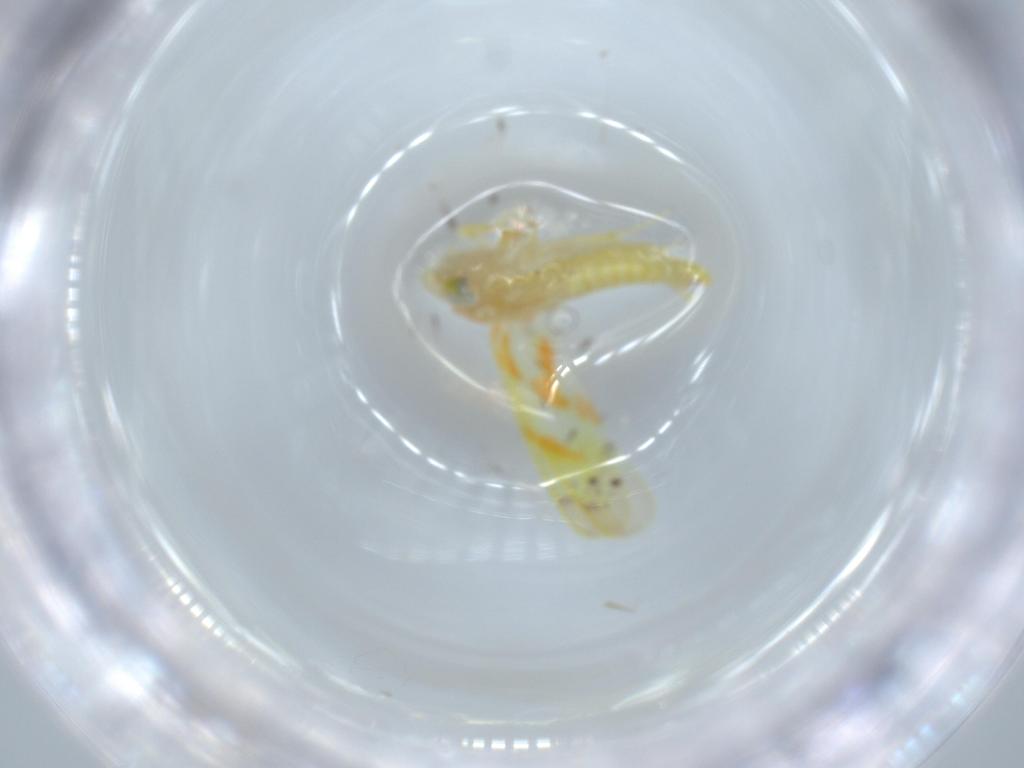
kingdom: Animalia
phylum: Arthropoda
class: Insecta
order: Hemiptera
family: Cicadellidae
